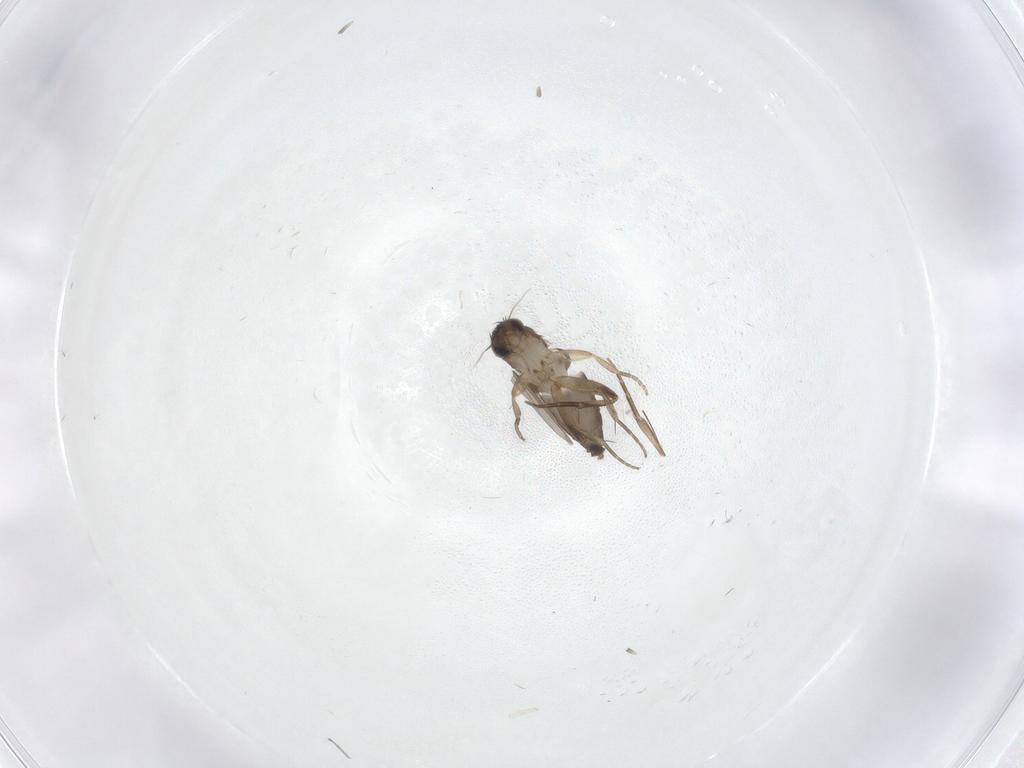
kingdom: Animalia
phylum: Arthropoda
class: Insecta
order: Diptera
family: Phoridae
